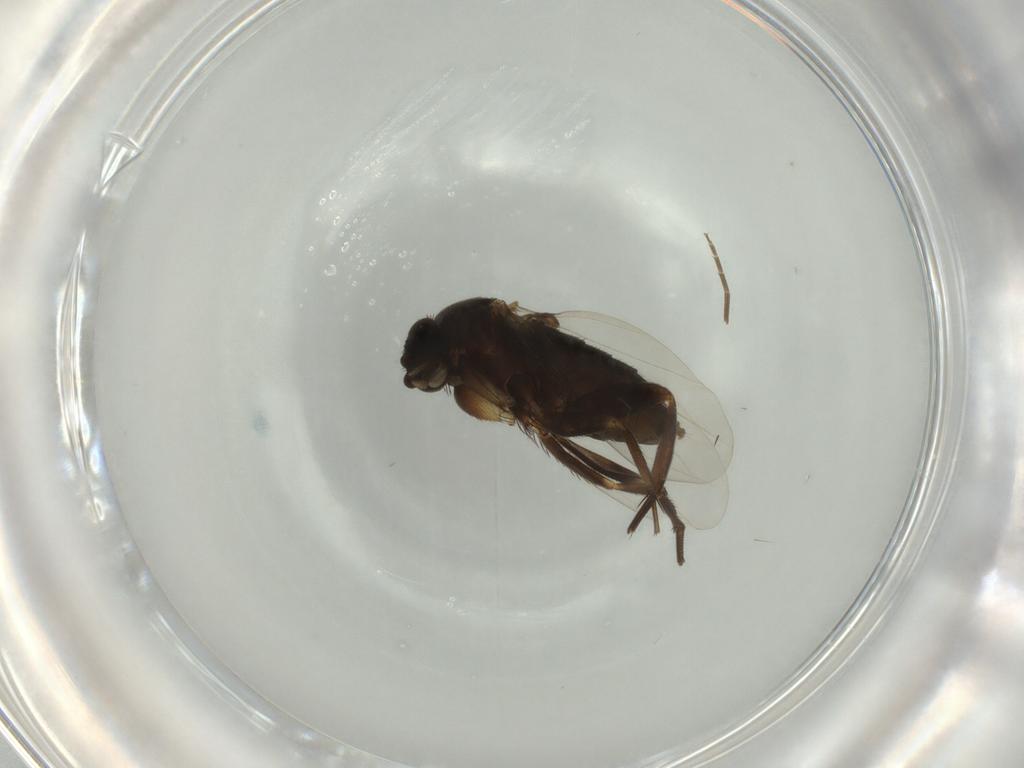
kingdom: Animalia
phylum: Arthropoda
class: Insecta
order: Diptera
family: Phoridae
